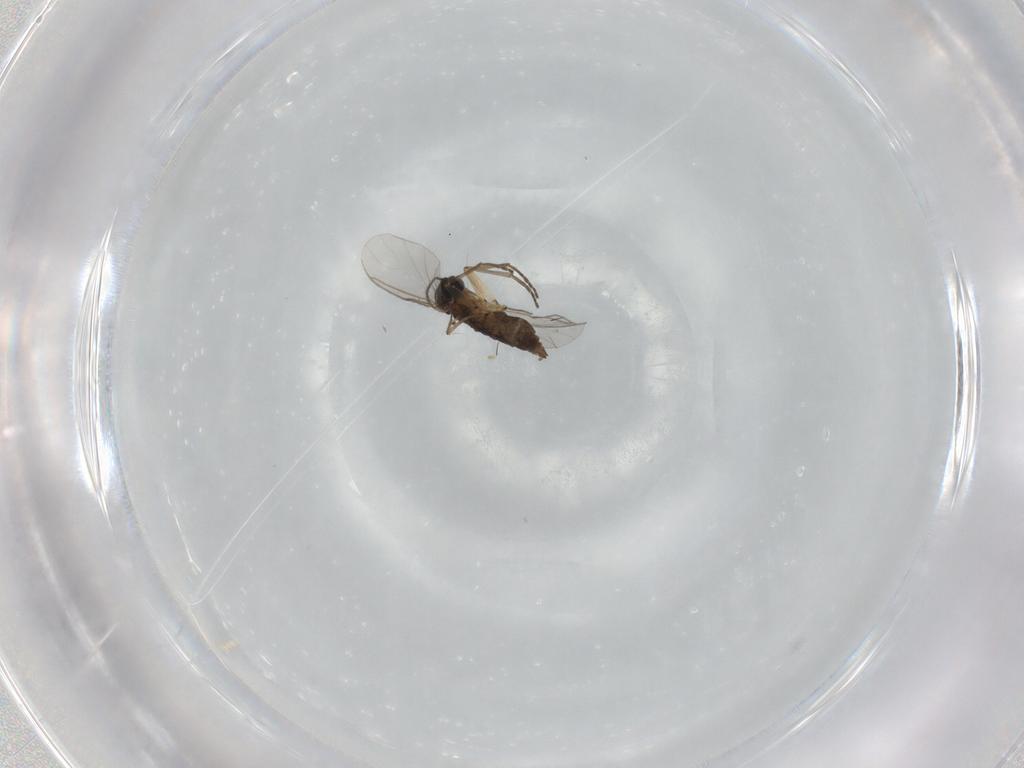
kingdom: Animalia
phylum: Arthropoda
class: Insecta
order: Diptera
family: Sciaridae
